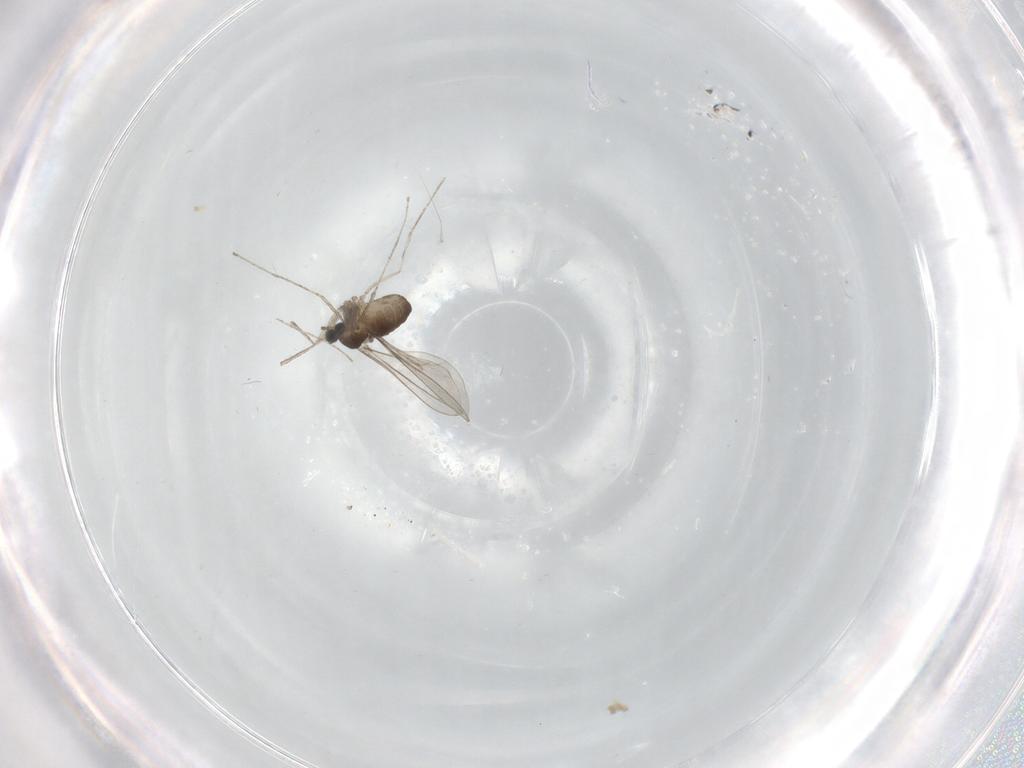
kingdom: Animalia
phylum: Arthropoda
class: Insecta
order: Diptera
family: Cecidomyiidae
